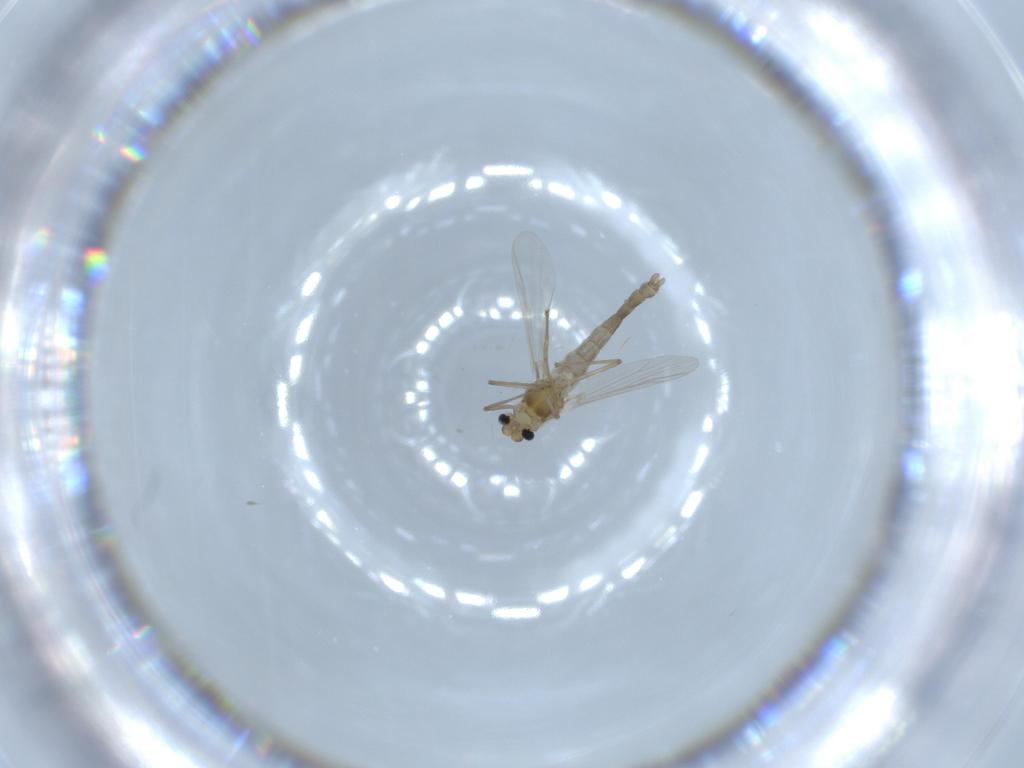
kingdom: Animalia
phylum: Arthropoda
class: Insecta
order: Diptera
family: Chironomidae
